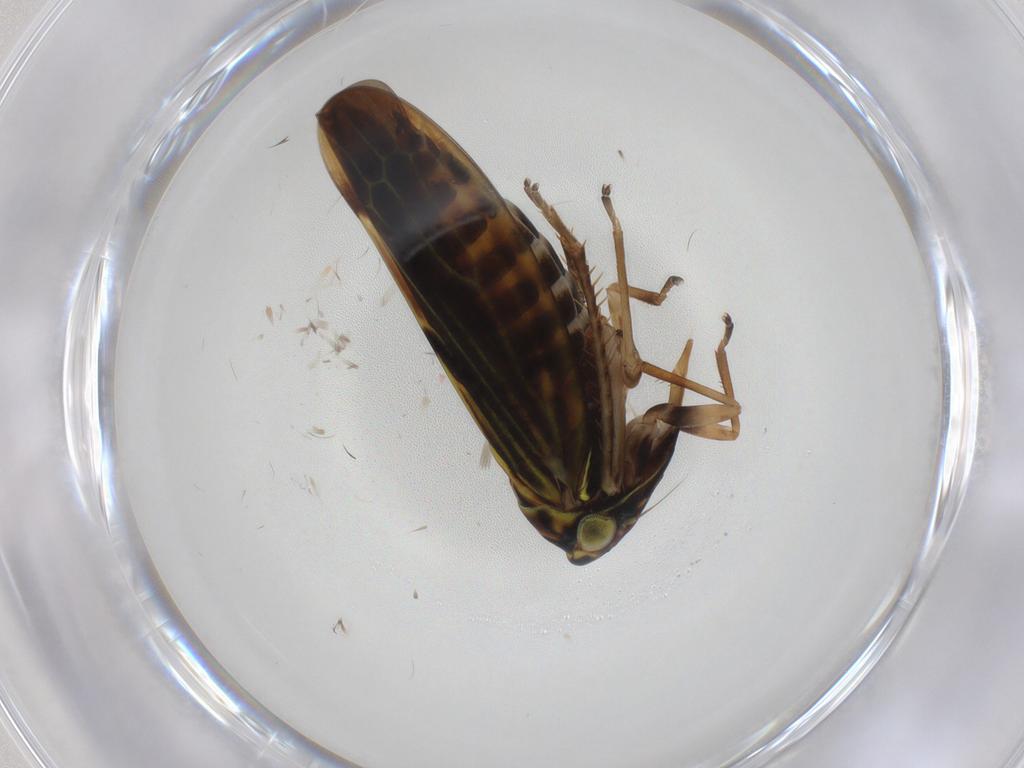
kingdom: Animalia
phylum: Arthropoda
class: Insecta
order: Hemiptera
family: Cicadellidae
